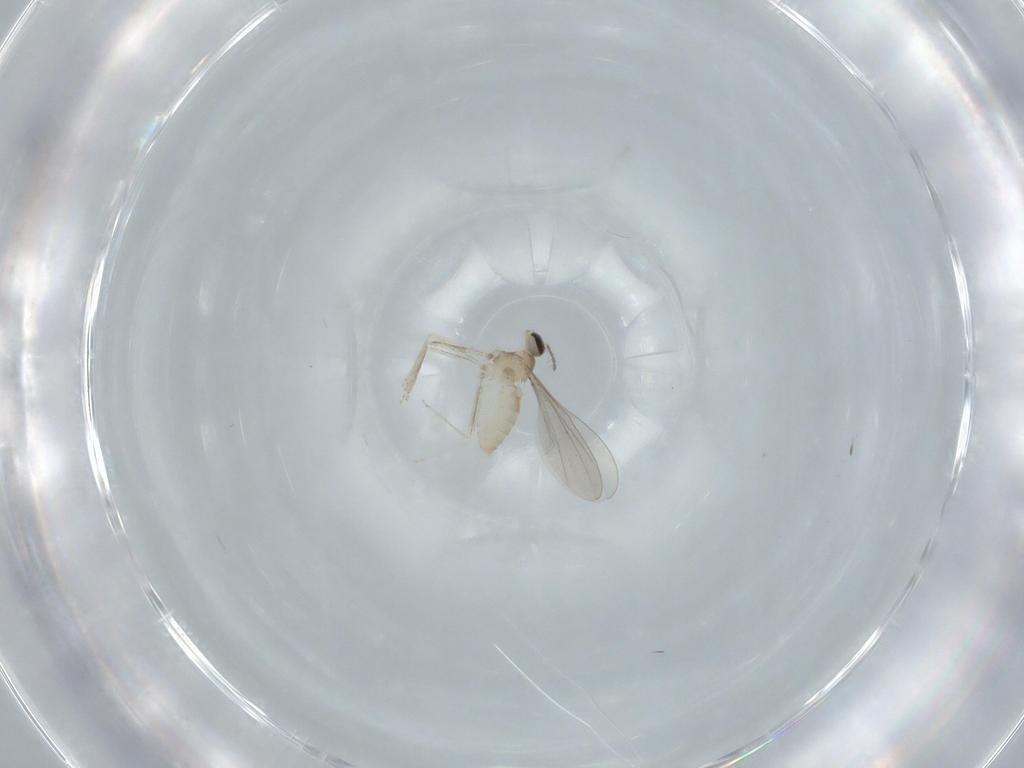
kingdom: Animalia
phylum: Arthropoda
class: Insecta
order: Diptera
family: Cecidomyiidae
